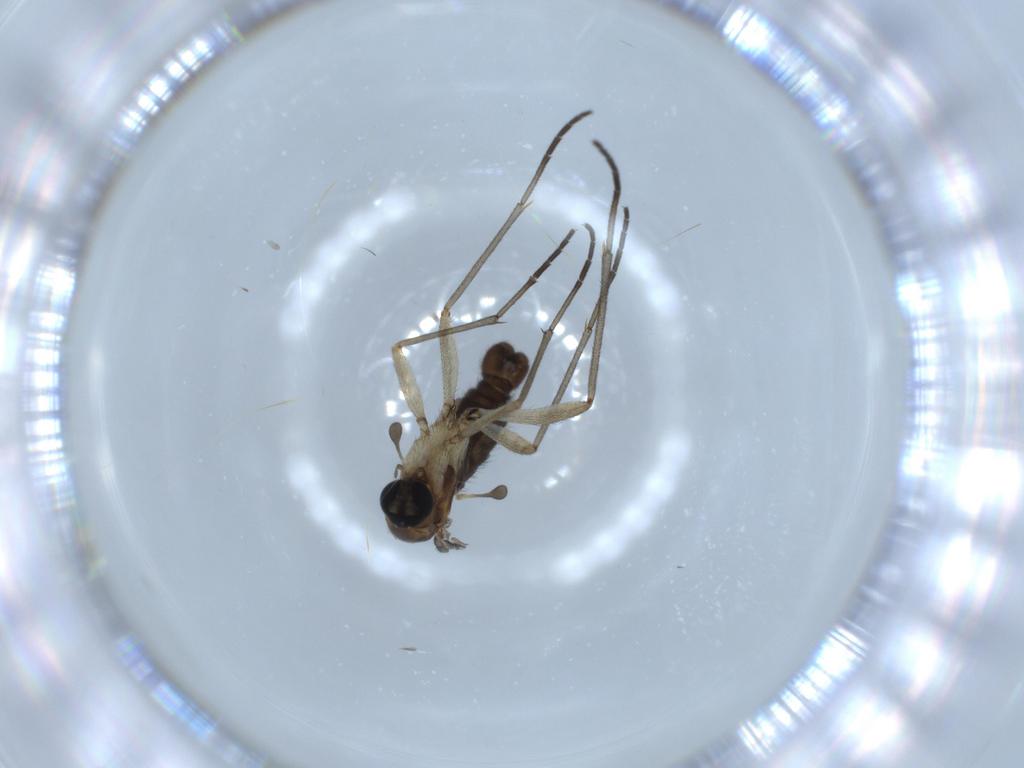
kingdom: Animalia
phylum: Arthropoda
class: Insecta
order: Diptera
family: Sciaridae
